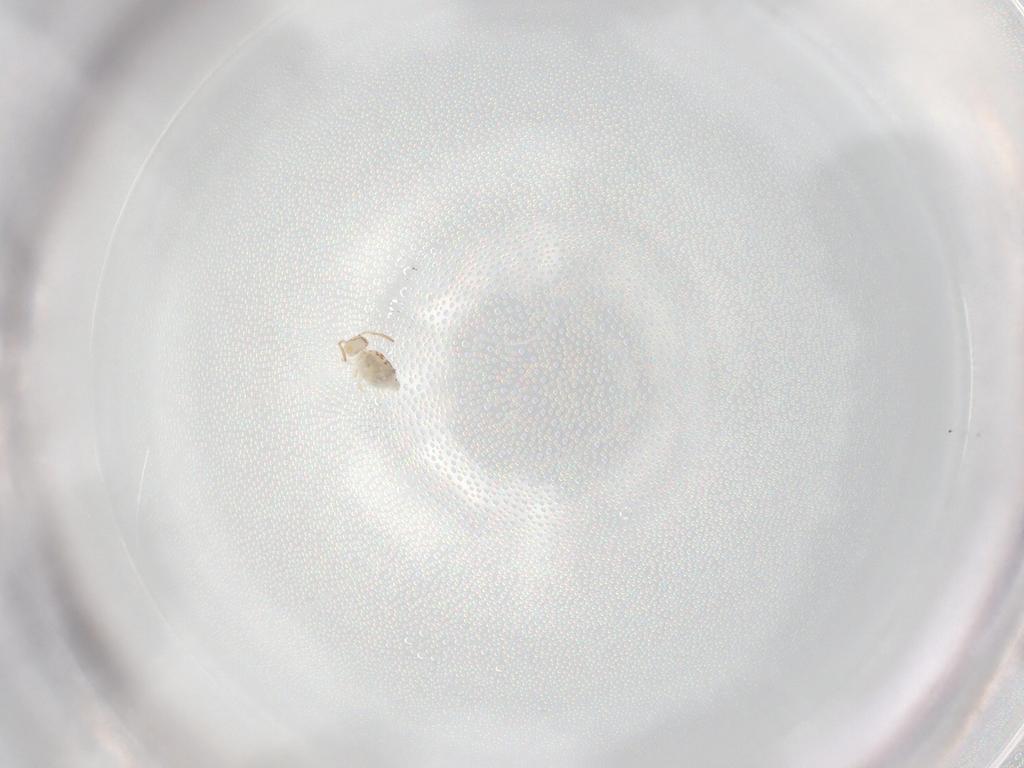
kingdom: Animalia
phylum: Arthropoda
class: Collembola
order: Symphypleona
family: Bourletiellidae
